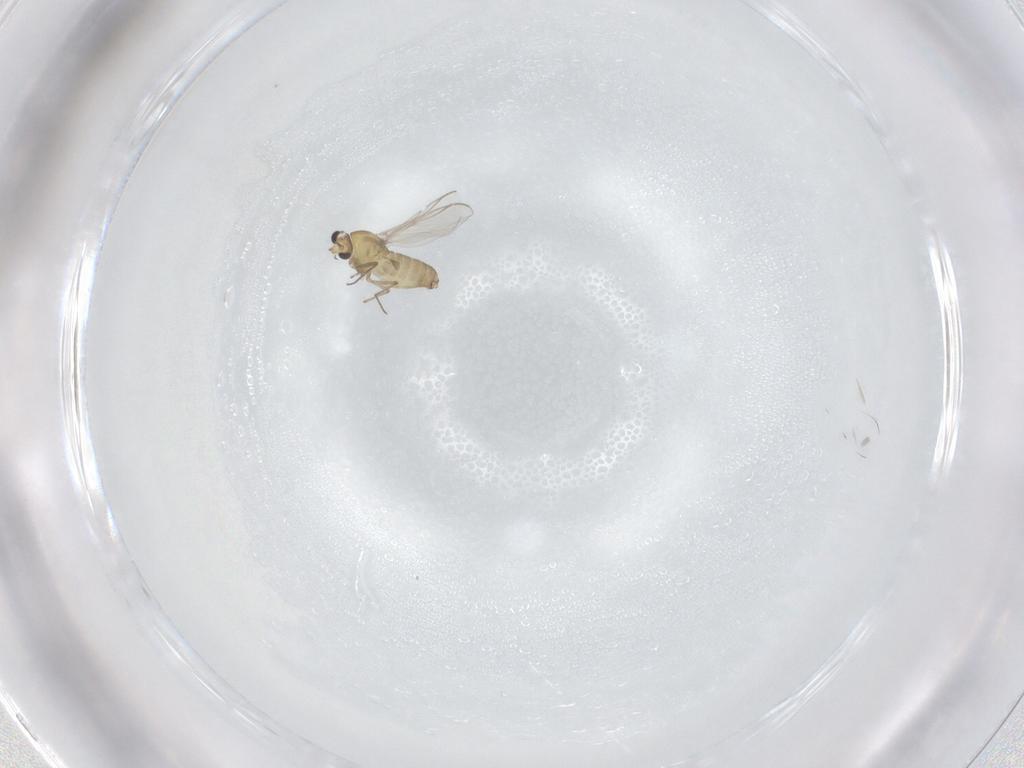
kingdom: Animalia
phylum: Arthropoda
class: Insecta
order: Diptera
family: Chironomidae
